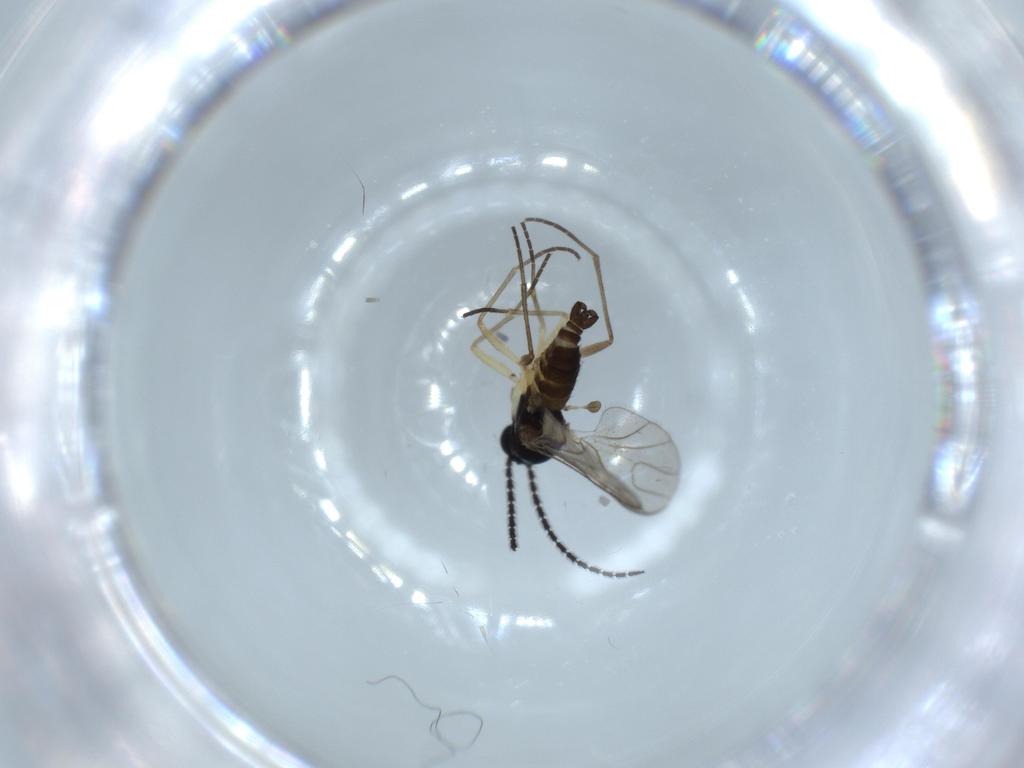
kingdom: Animalia
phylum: Arthropoda
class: Insecta
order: Diptera
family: Sciaridae
